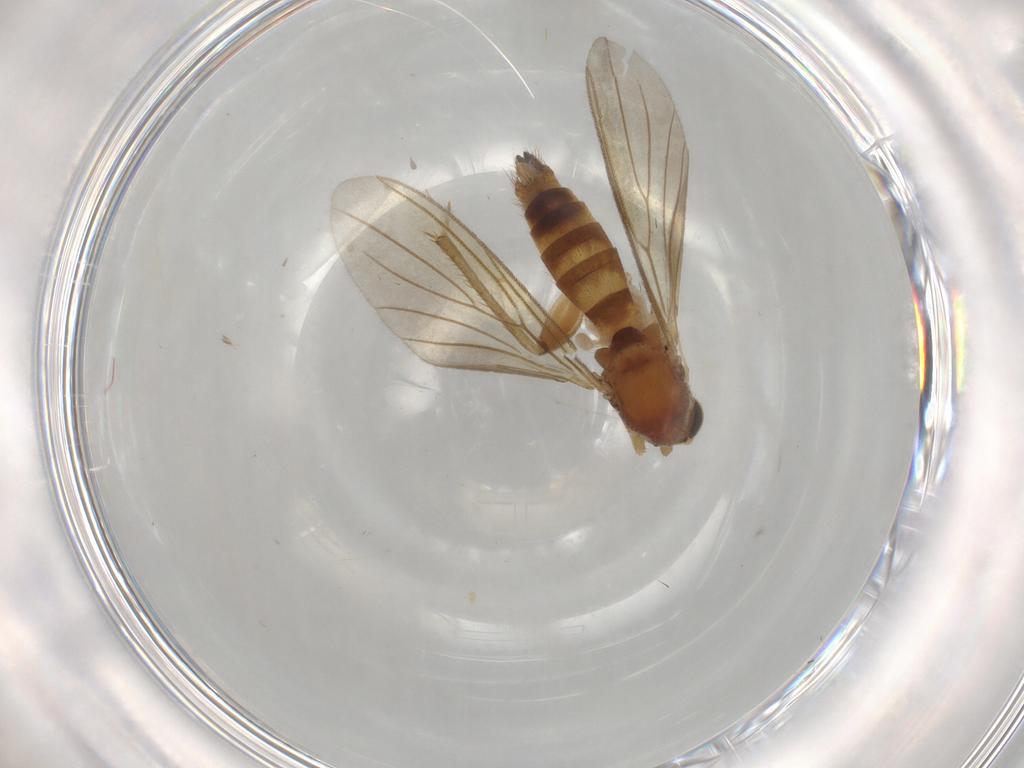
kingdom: Animalia
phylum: Arthropoda
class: Insecta
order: Diptera
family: Mycetophilidae
